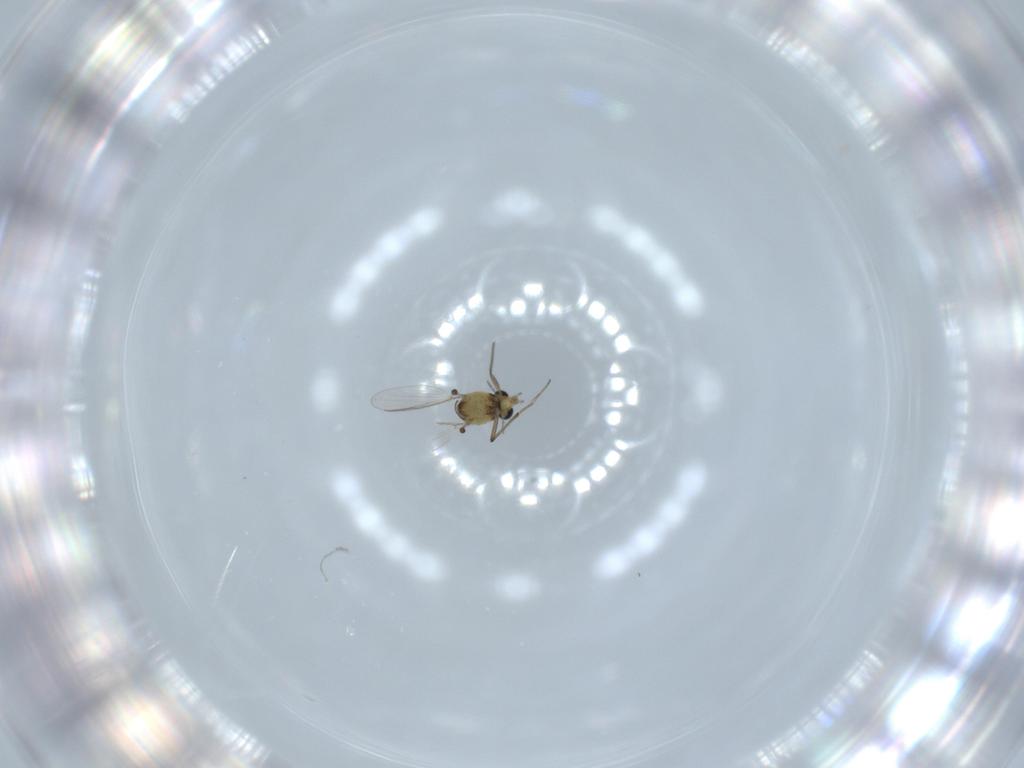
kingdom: Animalia
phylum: Arthropoda
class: Insecta
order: Diptera
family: Chironomidae
